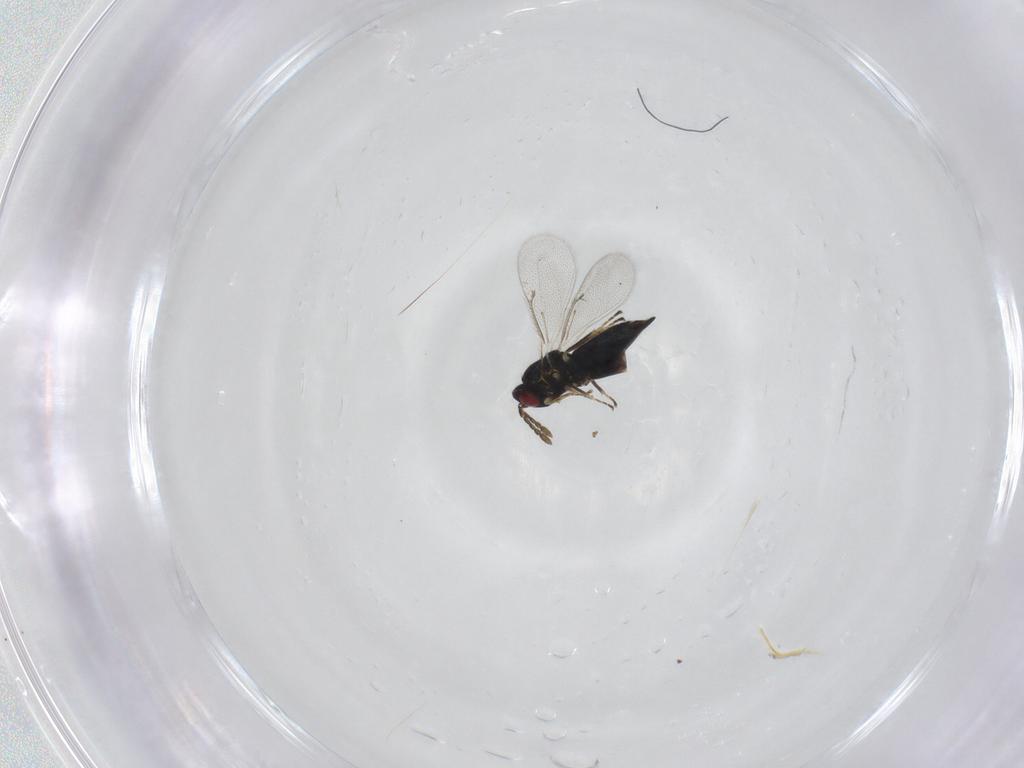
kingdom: Animalia
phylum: Arthropoda
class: Insecta
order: Hymenoptera
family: Eulophidae
